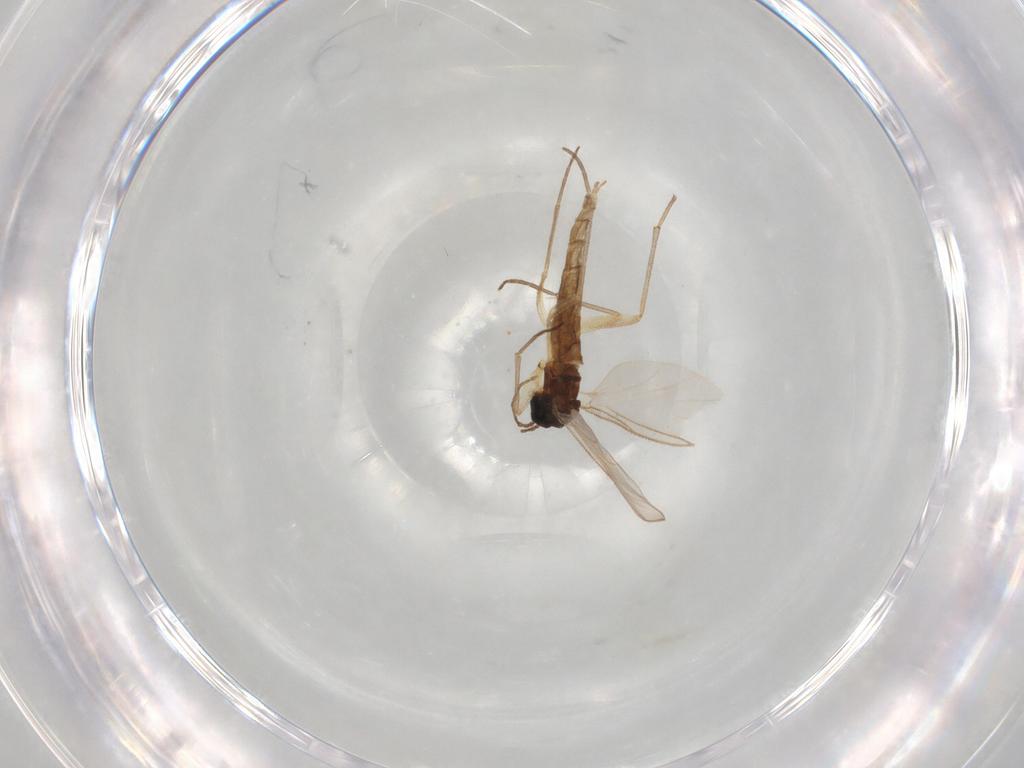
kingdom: Animalia
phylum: Arthropoda
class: Insecta
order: Diptera
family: Sciaridae
